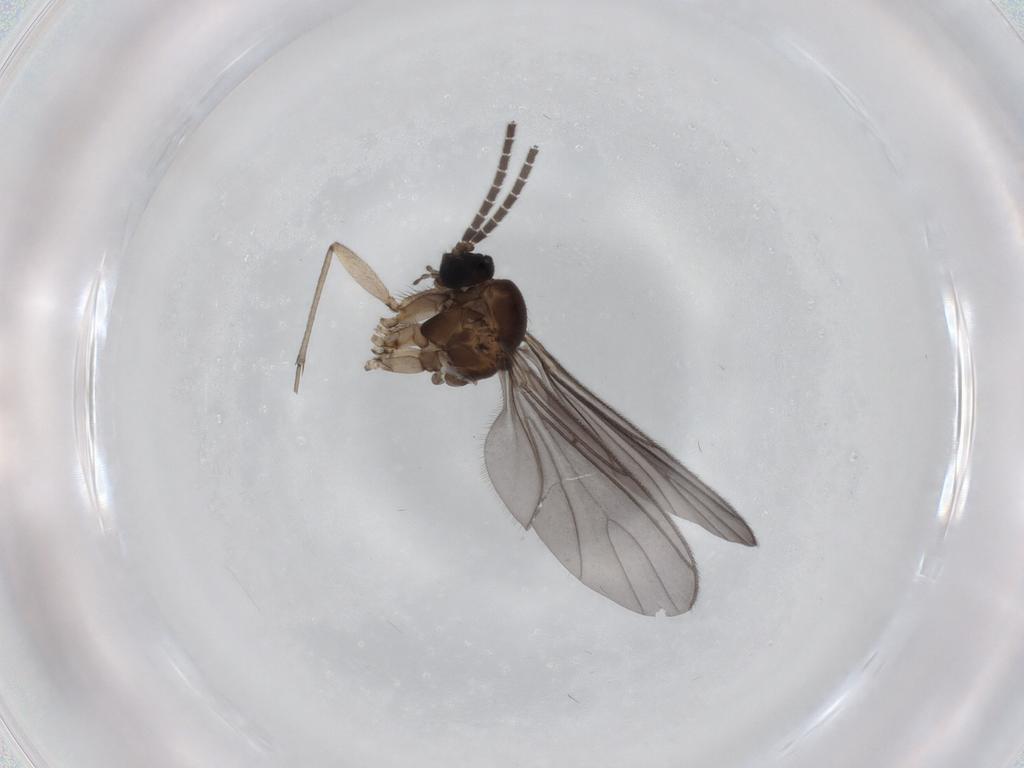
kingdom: Animalia
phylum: Arthropoda
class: Insecta
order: Diptera
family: Sciaridae
